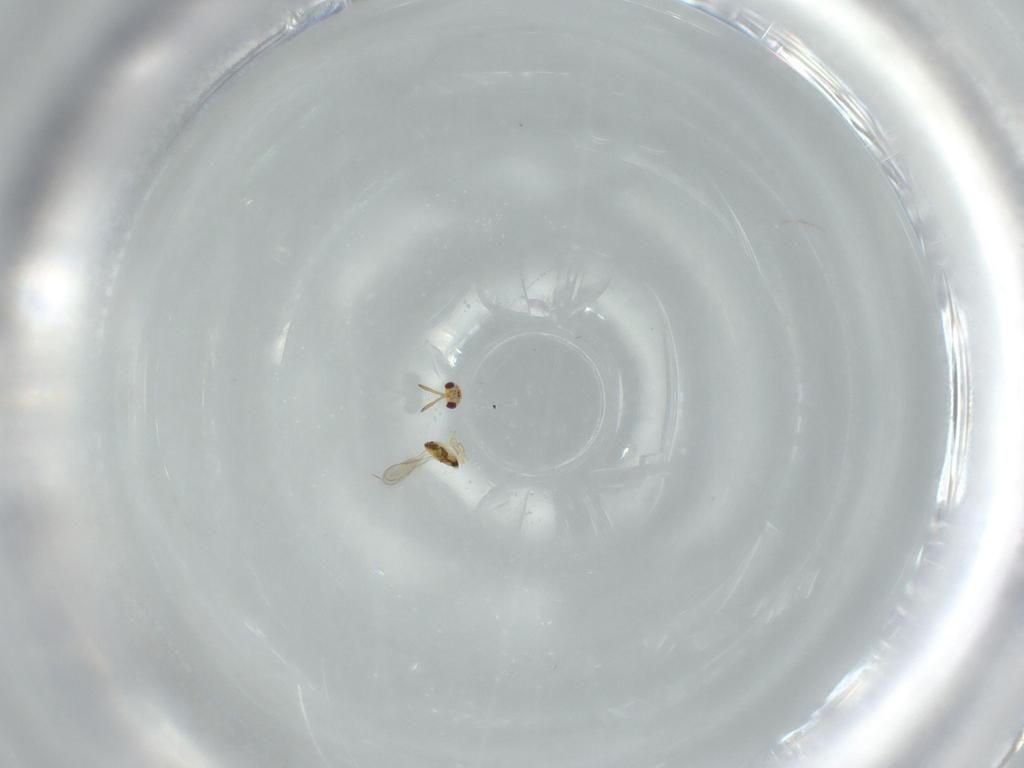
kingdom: Animalia
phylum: Arthropoda
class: Insecta
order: Hymenoptera
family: Aphelinidae
